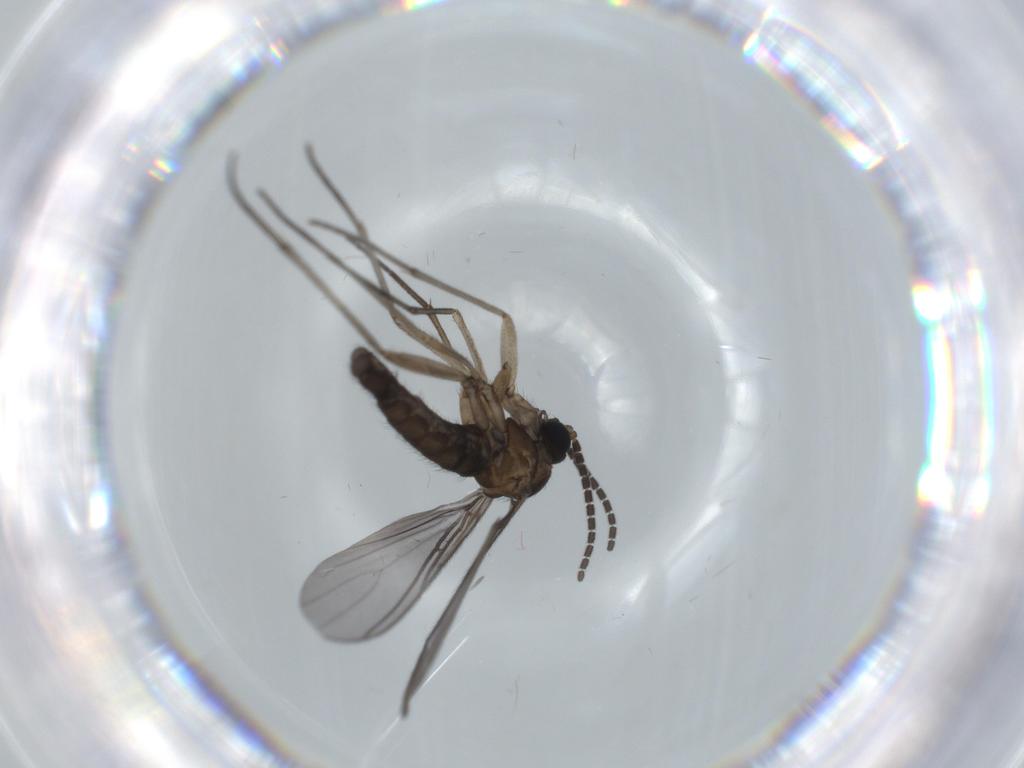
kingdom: Animalia
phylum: Arthropoda
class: Insecta
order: Diptera
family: Sciaridae
